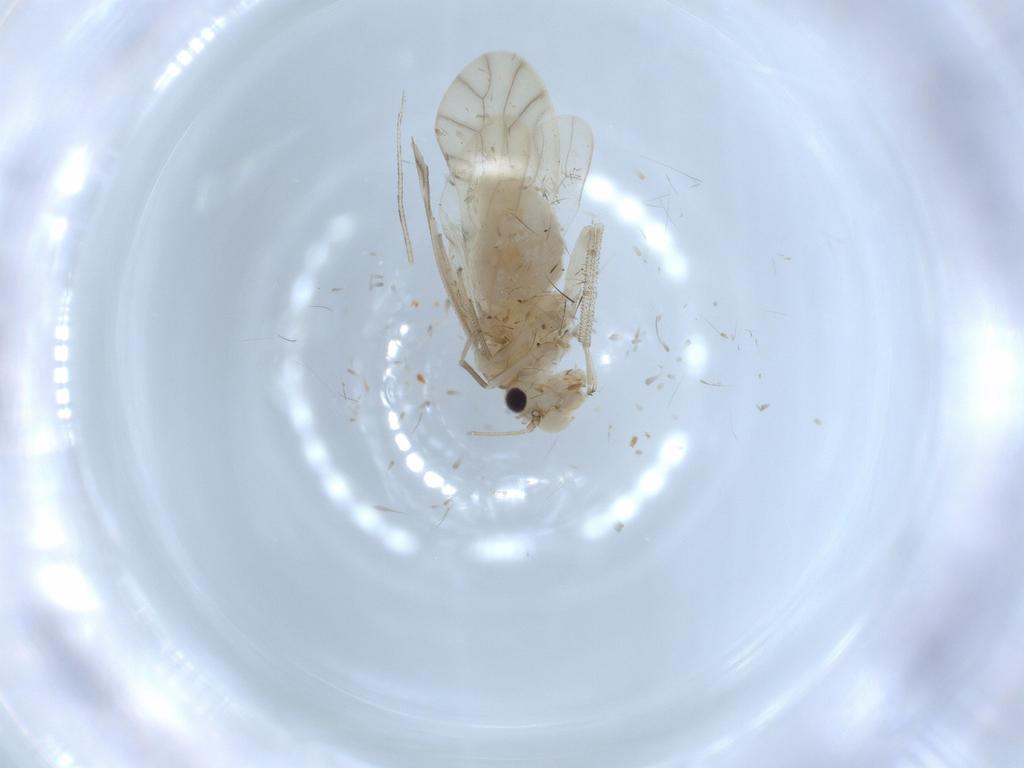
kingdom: Animalia
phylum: Arthropoda
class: Insecta
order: Psocodea
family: Caeciliusidae
